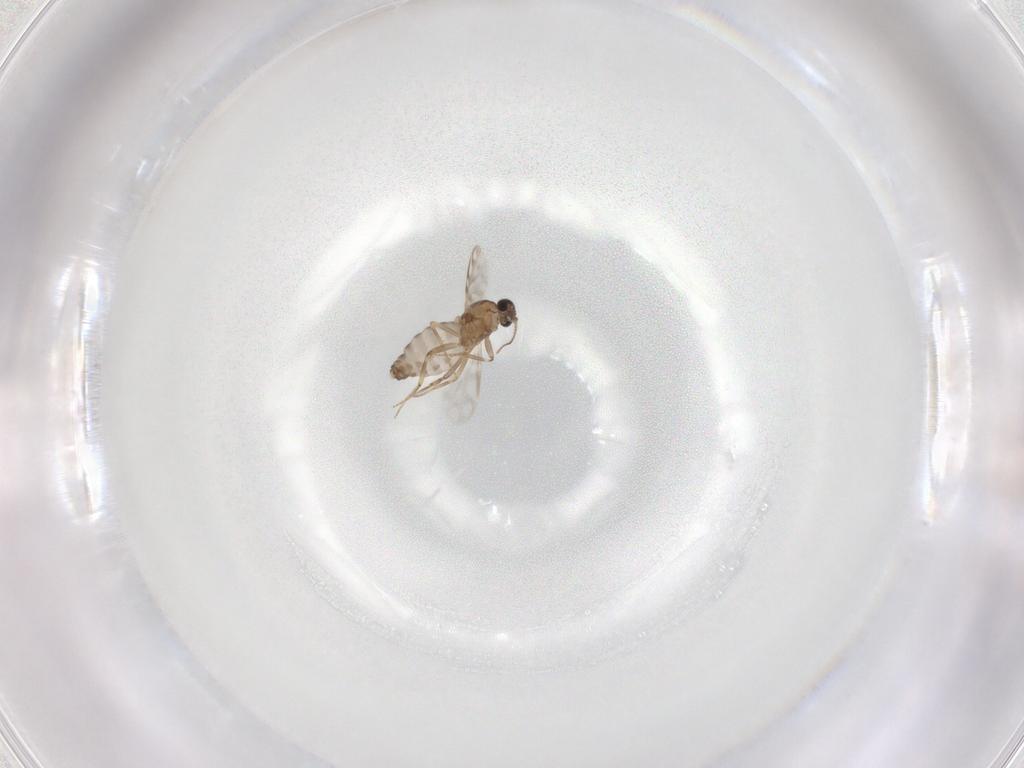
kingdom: Animalia
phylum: Arthropoda
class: Insecta
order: Diptera
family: Ceratopogonidae
